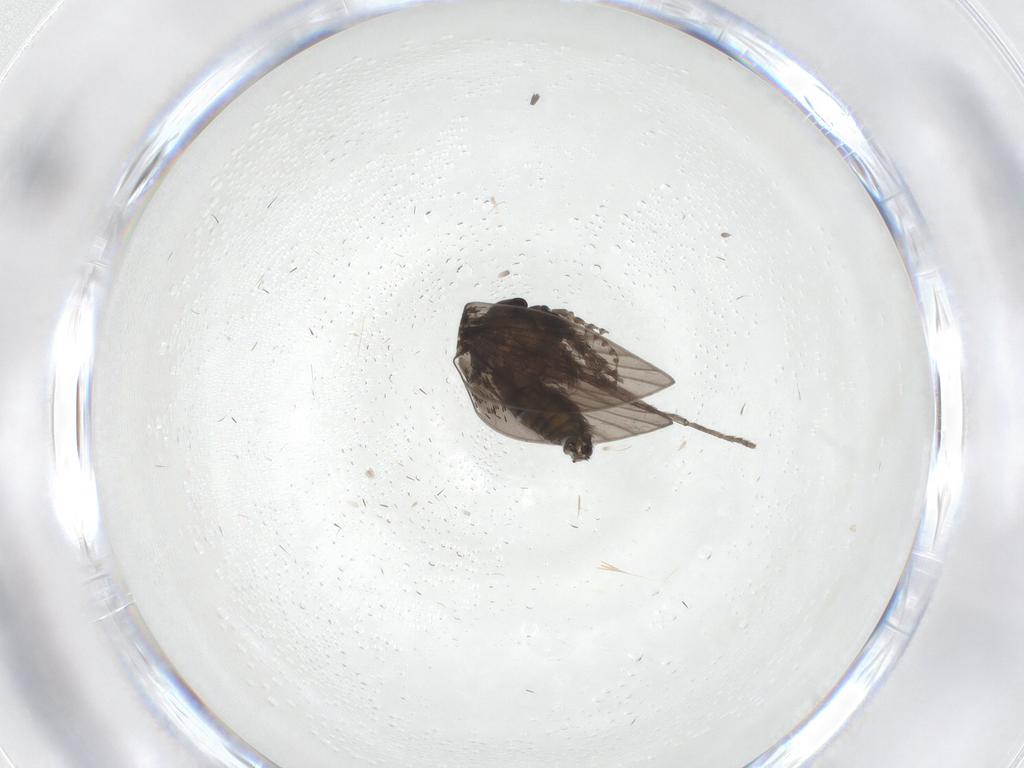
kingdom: Animalia
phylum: Arthropoda
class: Insecta
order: Diptera
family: Psychodidae
